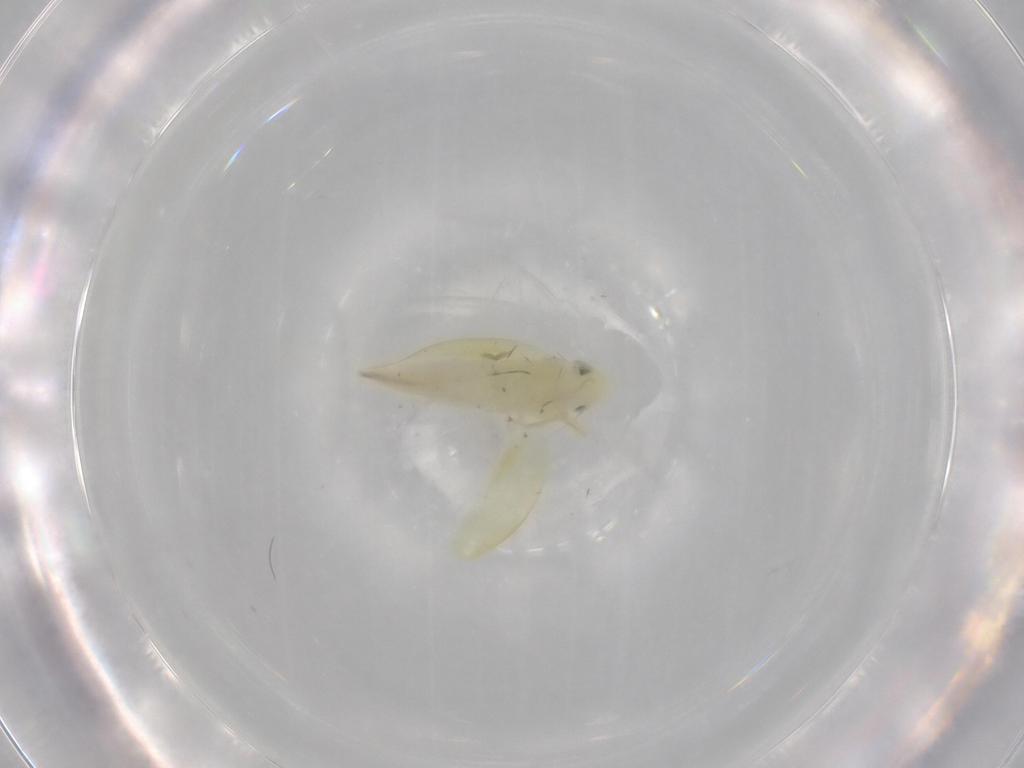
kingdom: Animalia
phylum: Arthropoda
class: Insecta
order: Hemiptera
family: Cicadellidae
